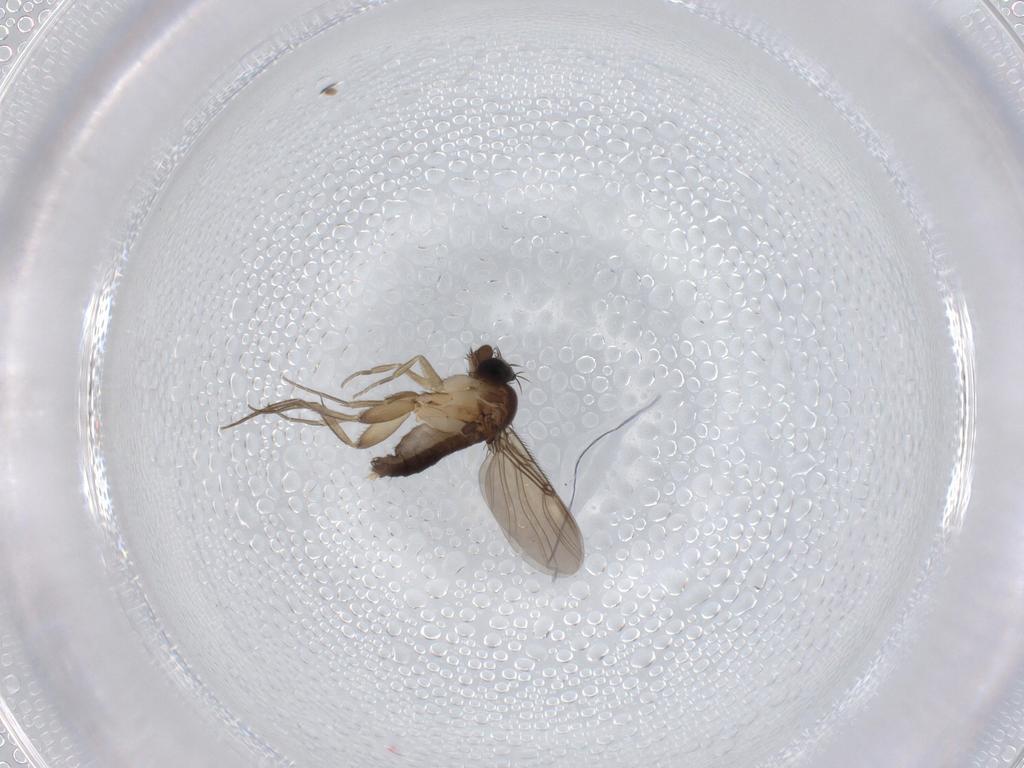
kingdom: Animalia
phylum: Arthropoda
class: Insecta
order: Diptera
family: Phoridae
